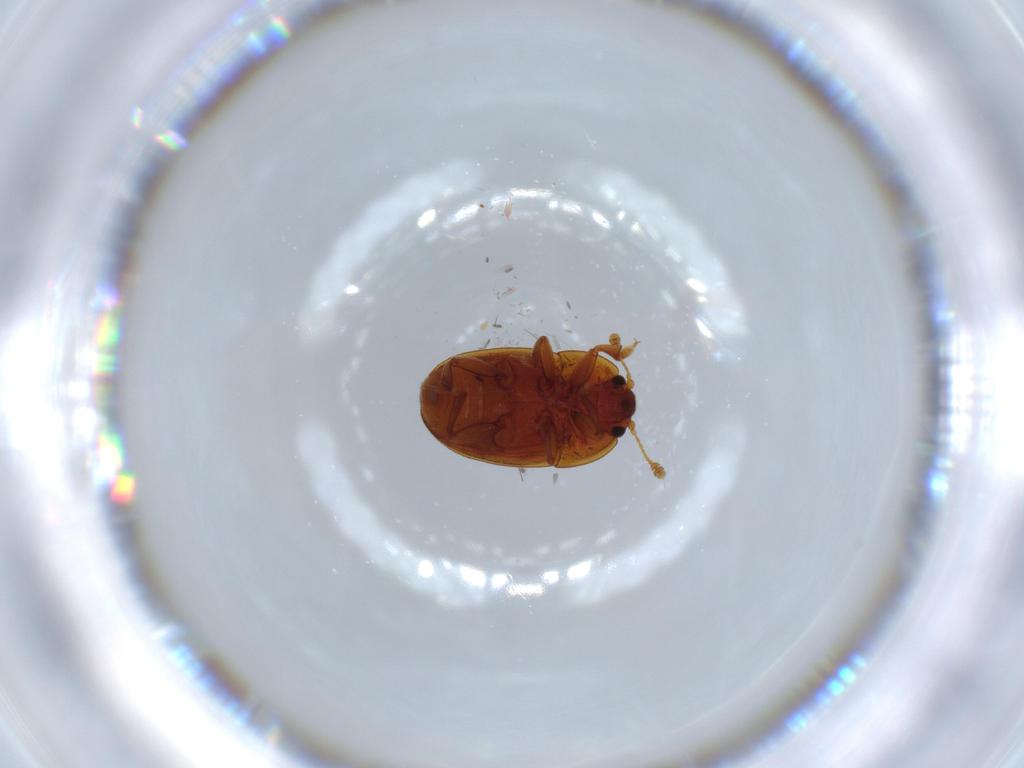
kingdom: Animalia
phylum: Arthropoda
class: Insecta
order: Coleoptera
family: Nitidulidae
